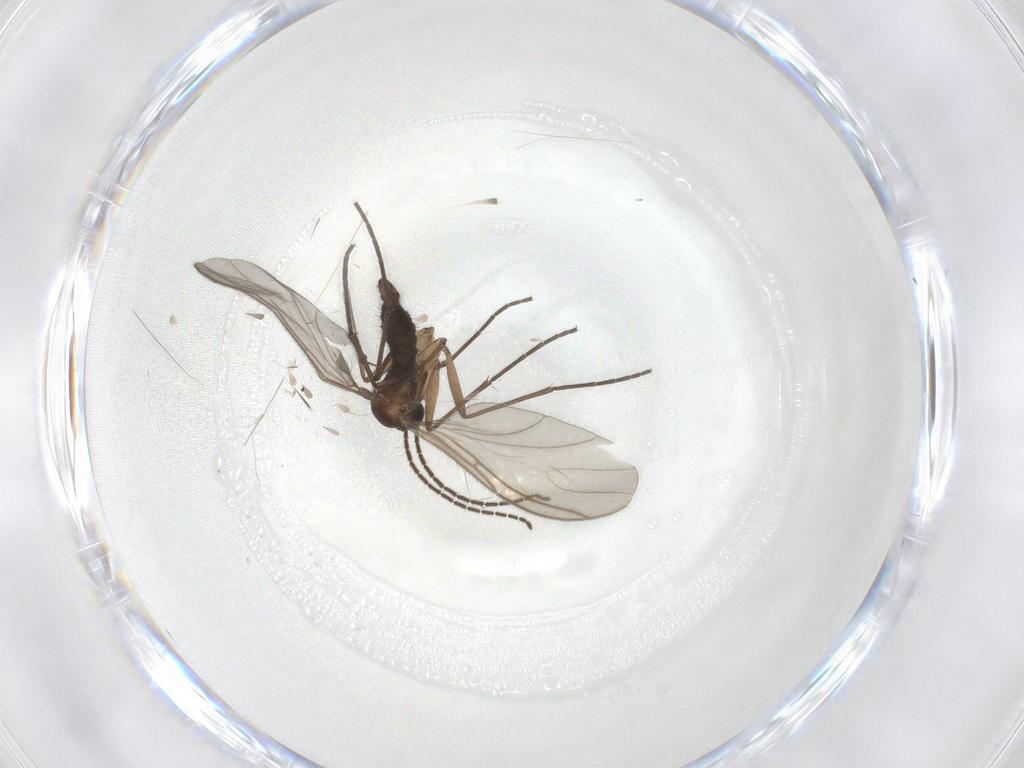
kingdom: Animalia
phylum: Arthropoda
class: Insecta
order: Diptera
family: Sciaridae
